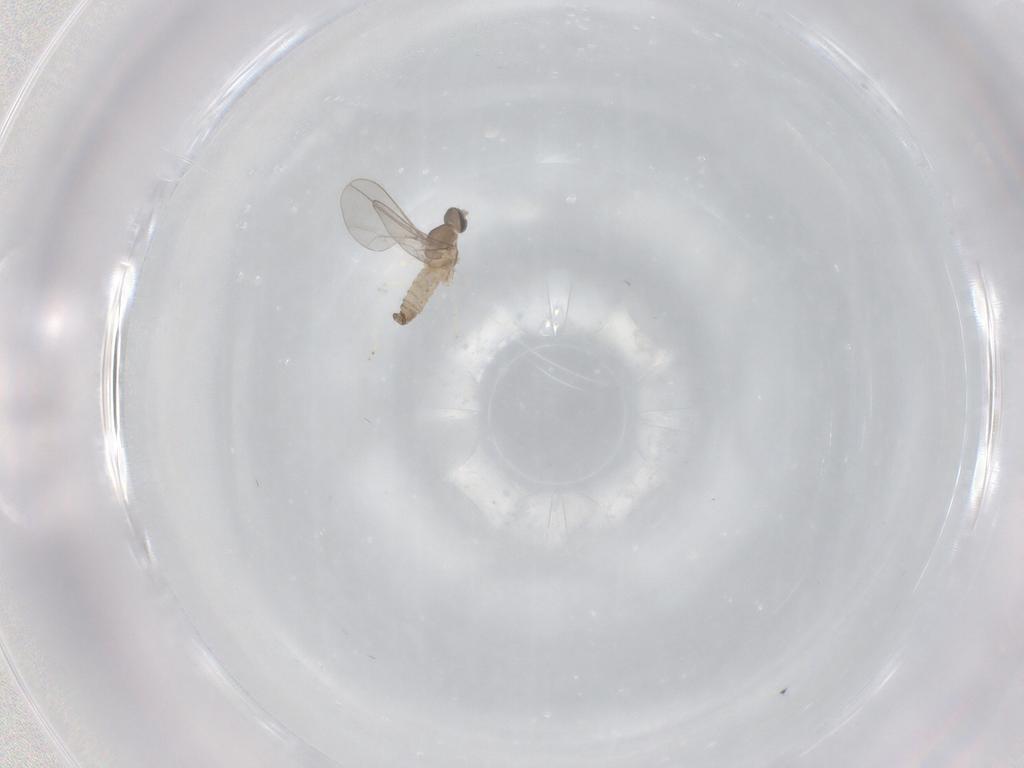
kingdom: Animalia
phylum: Arthropoda
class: Insecta
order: Diptera
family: Cecidomyiidae
